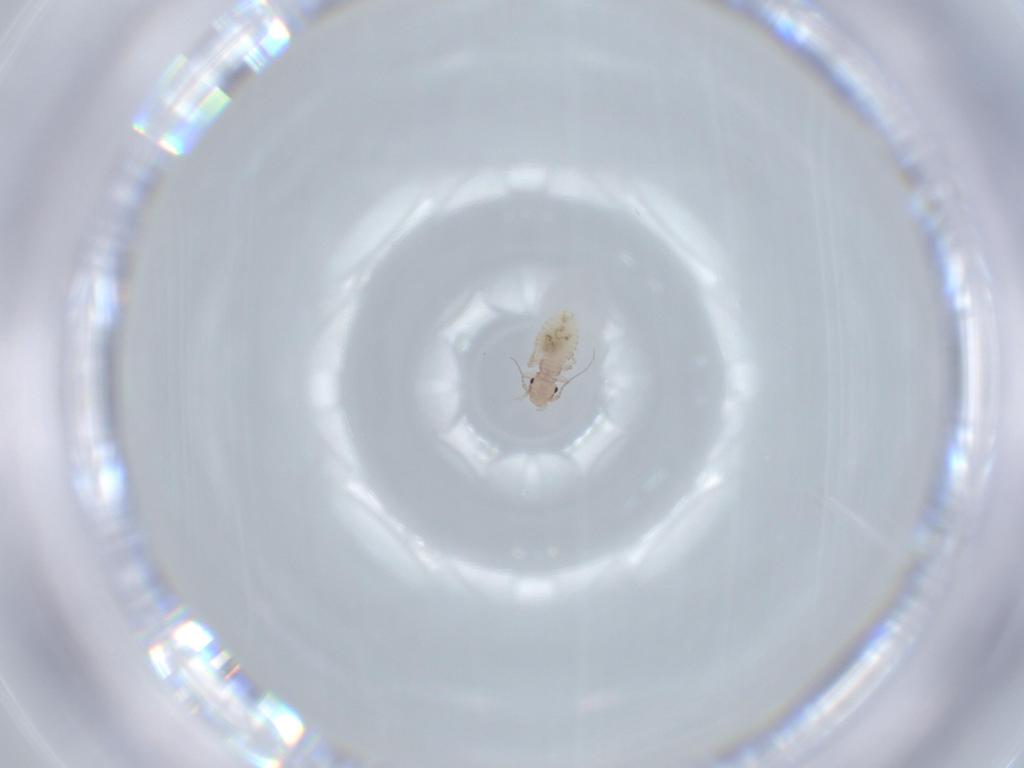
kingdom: Animalia
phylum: Arthropoda
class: Insecta
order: Psocodea
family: Psoquillidae
